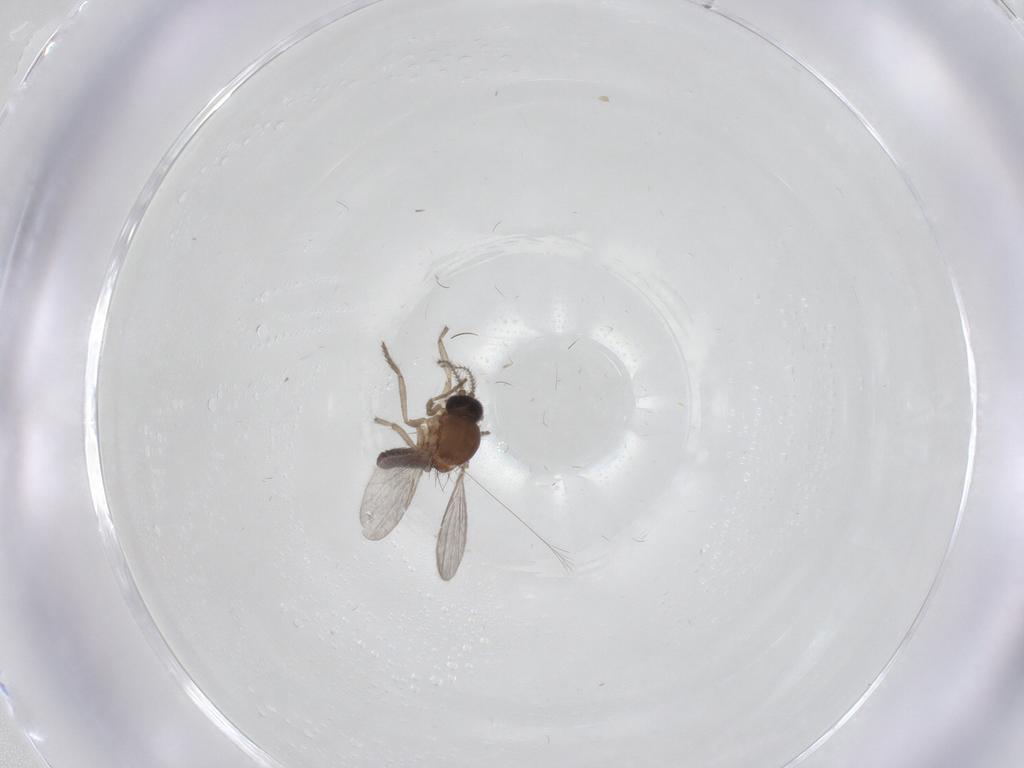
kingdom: Animalia
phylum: Arthropoda
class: Insecta
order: Diptera
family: Ceratopogonidae
